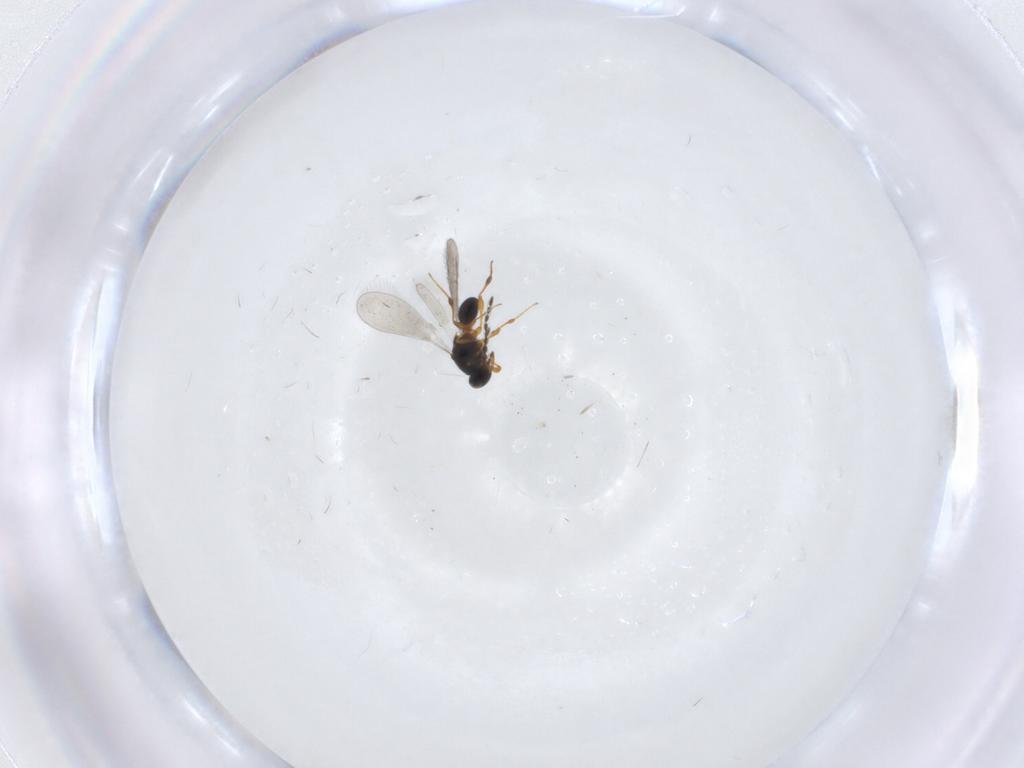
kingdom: Animalia
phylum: Arthropoda
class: Insecta
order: Hymenoptera
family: Platygastridae
